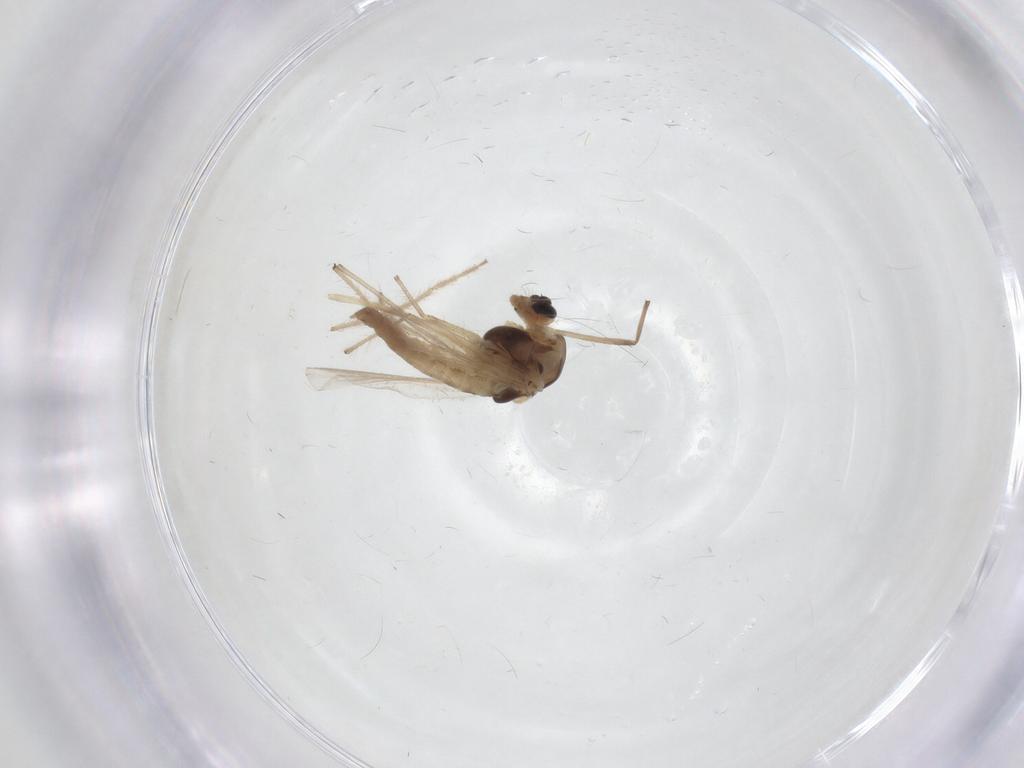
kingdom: Animalia
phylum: Arthropoda
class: Insecta
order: Diptera
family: Chironomidae
